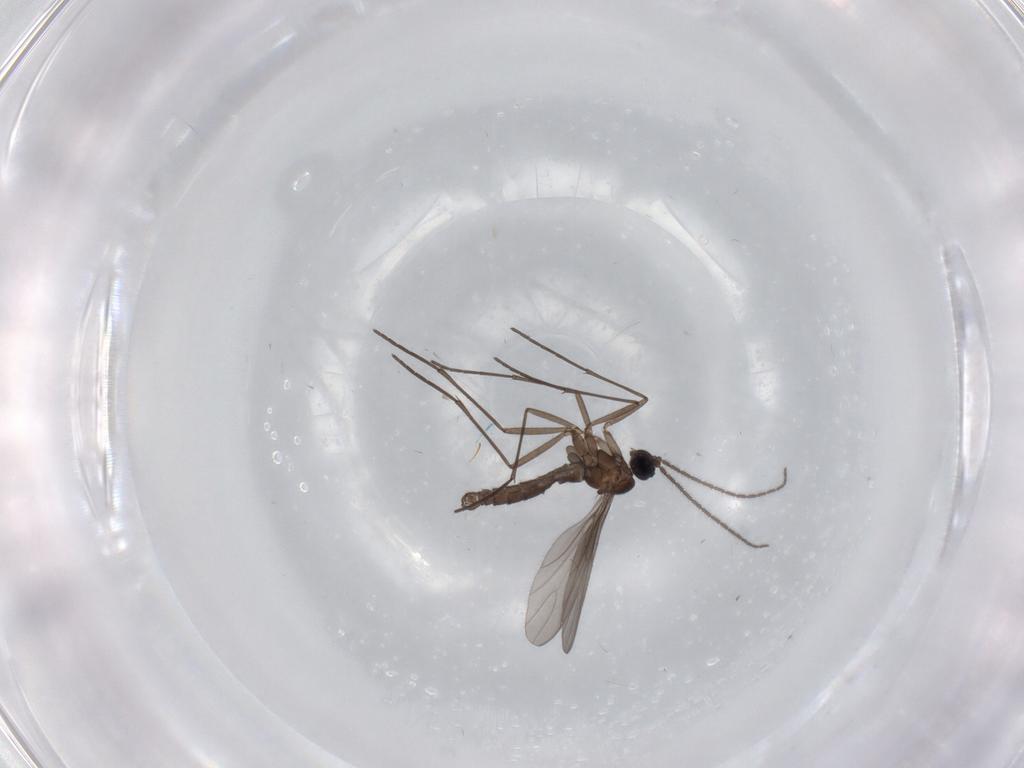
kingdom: Animalia
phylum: Arthropoda
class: Insecta
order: Diptera
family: Sciaridae
